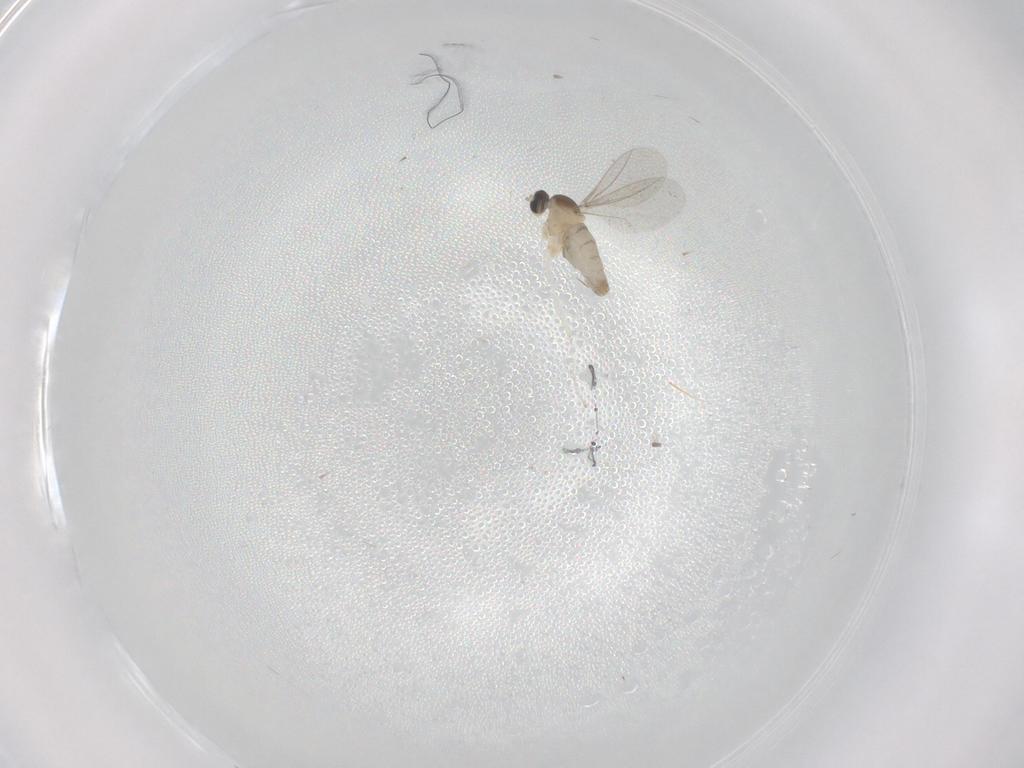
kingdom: Animalia
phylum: Arthropoda
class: Insecta
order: Diptera
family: Cecidomyiidae
